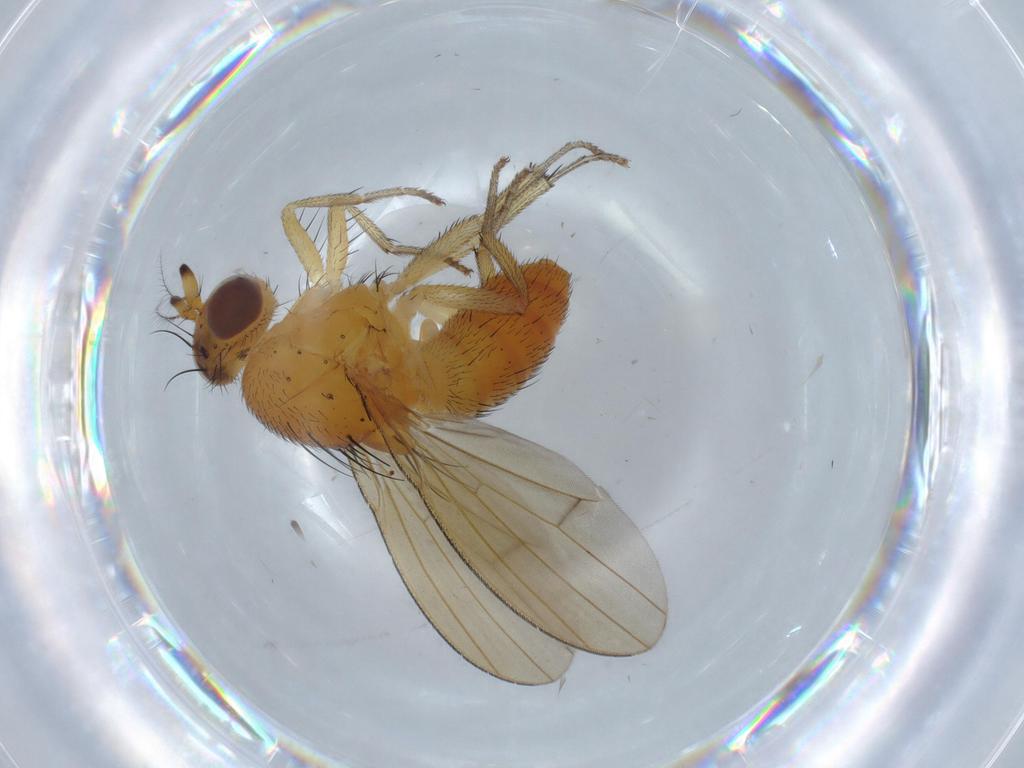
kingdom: Animalia
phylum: Arthropoda
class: Insecta
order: Diptera
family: Lauxaniidae
